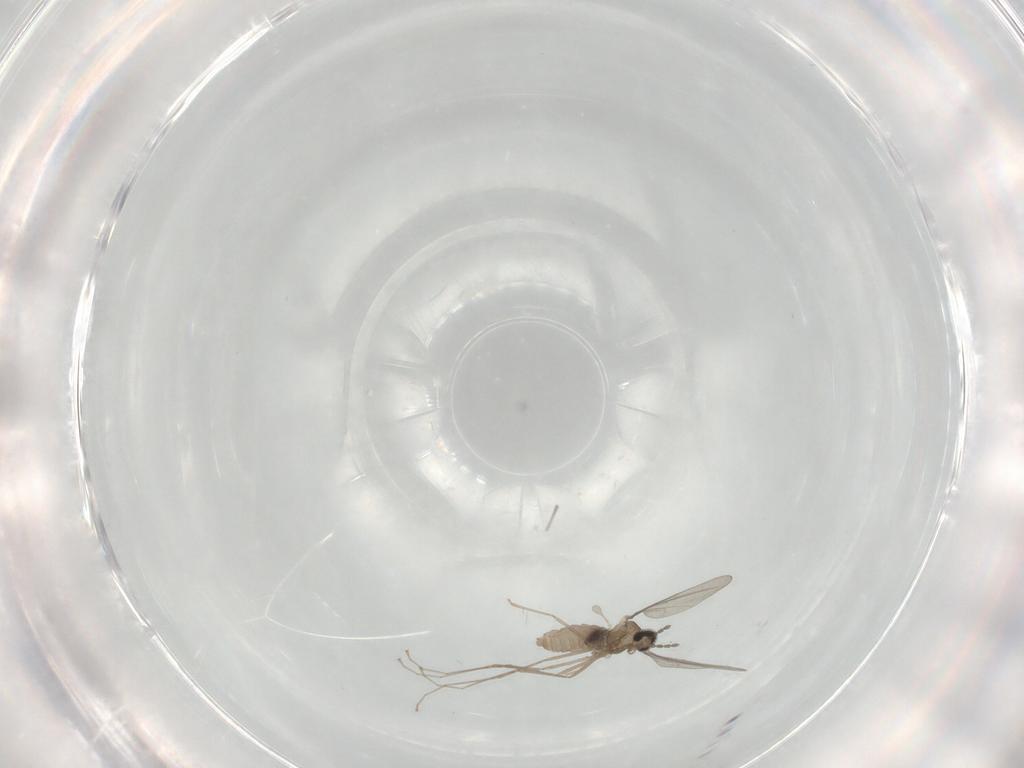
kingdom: Animalia
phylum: Arthropoda
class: Insecta
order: Diptera
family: Cecidomyiidae
